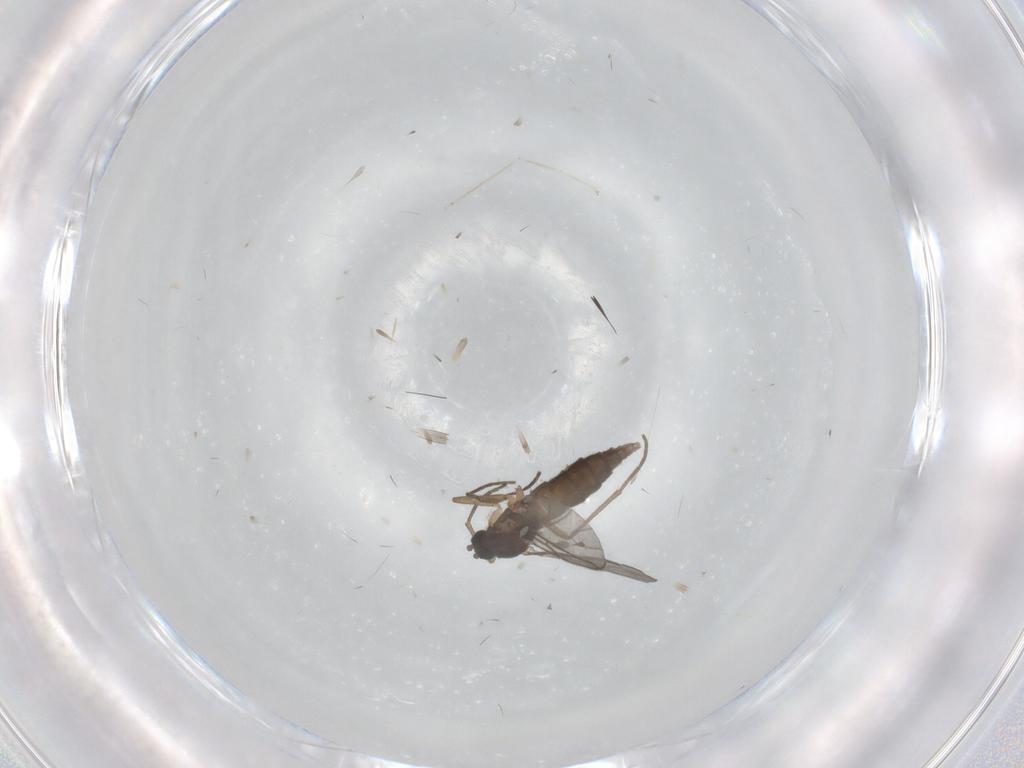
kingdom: Animalia
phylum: Arthropoda
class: Insecta
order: Diptera
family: Sciaridae
